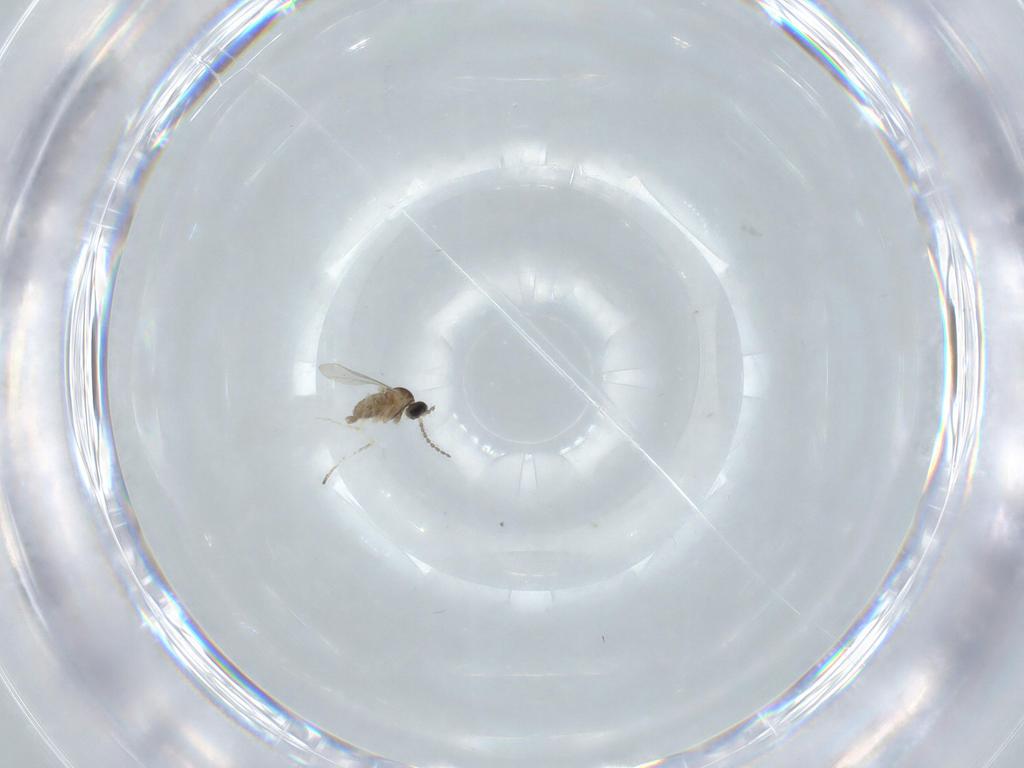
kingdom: Animalia
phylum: Arthropoda
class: Insecta
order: Diptera
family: Cecidomyiidae
